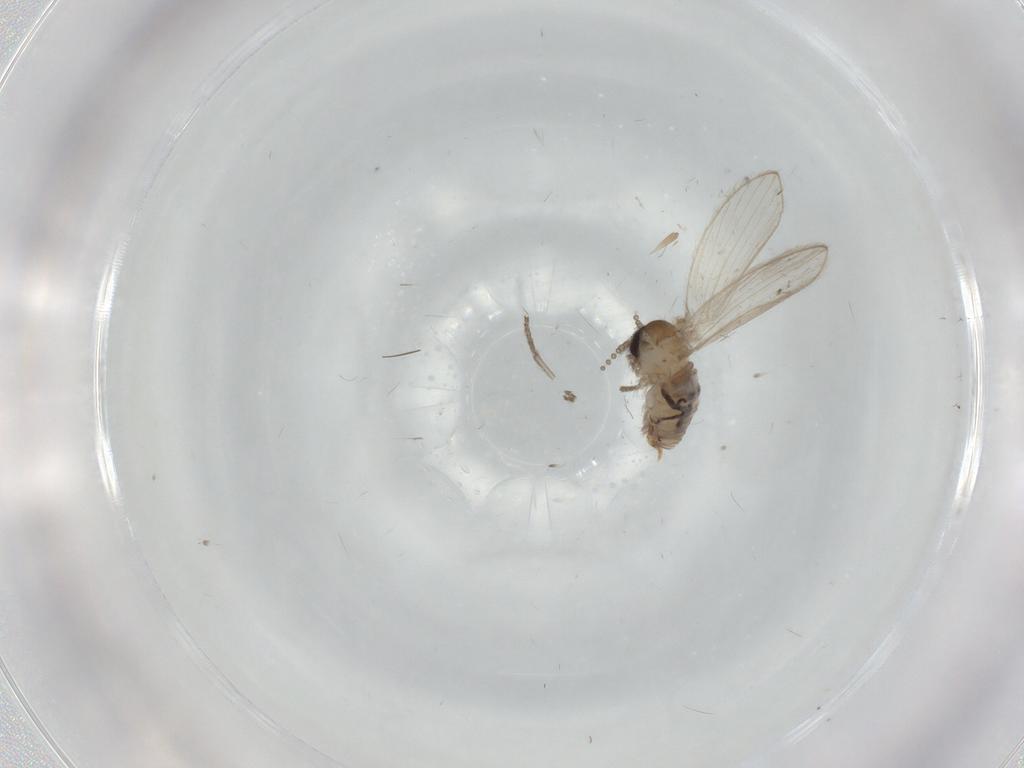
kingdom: Animalia
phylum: Arthropoda
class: Insecta
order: Diptera
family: Psychodidae
